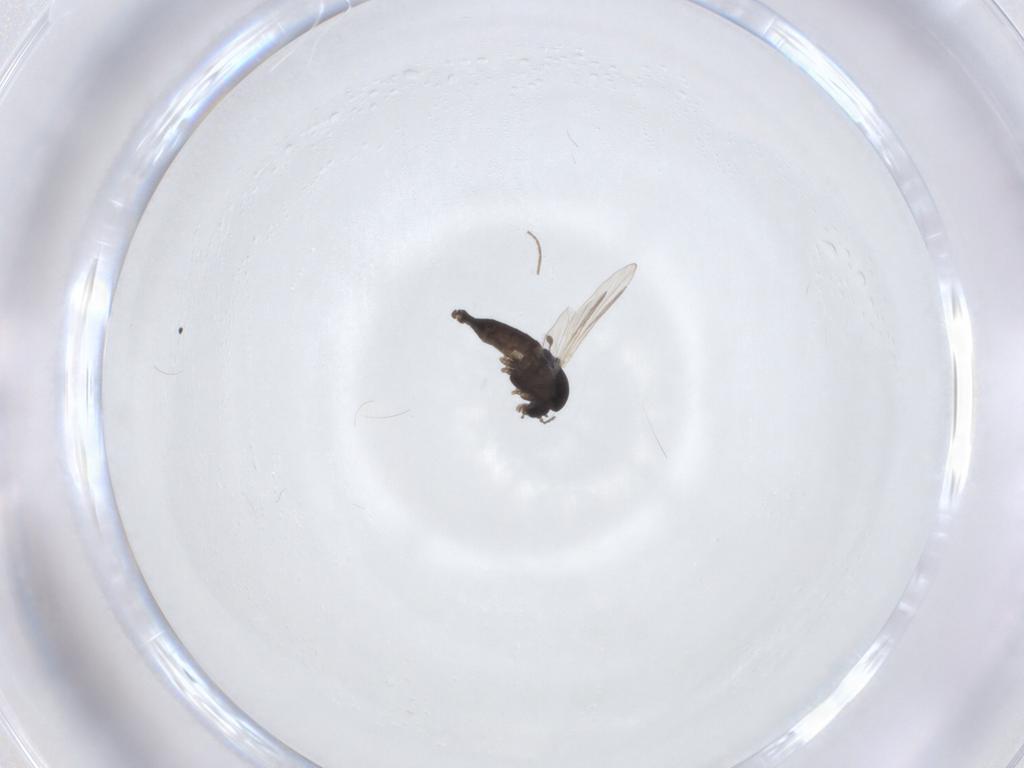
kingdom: Animalia
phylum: Arthropoda
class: Insecta
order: Diptera
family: Chironomidae
